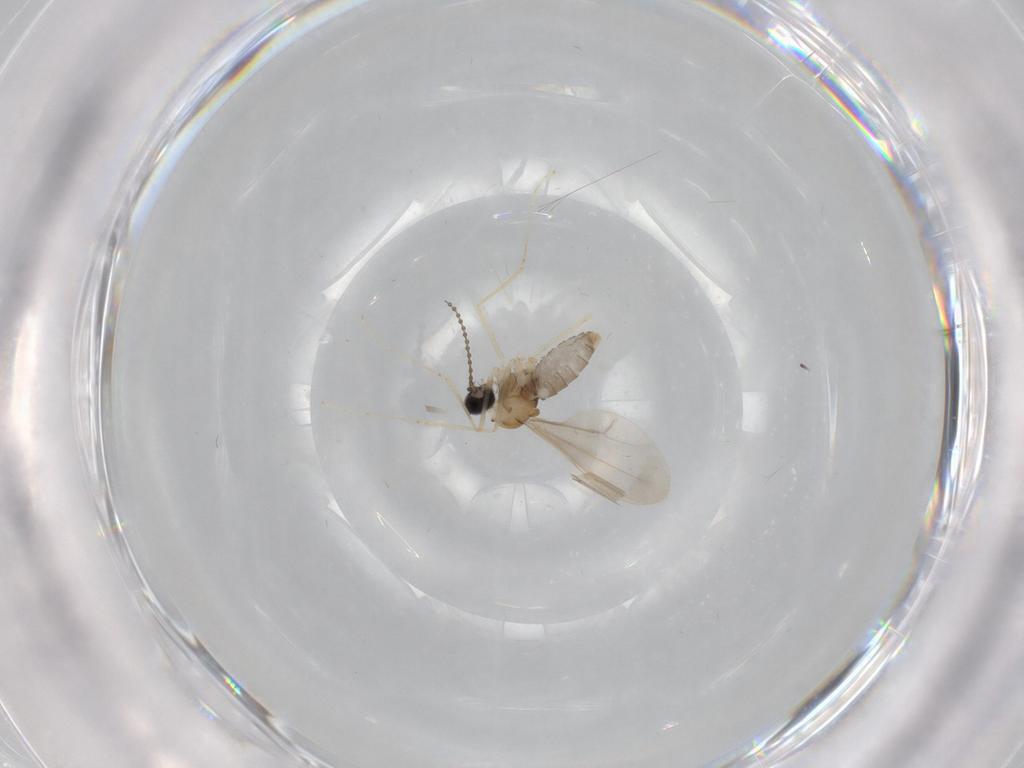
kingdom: Animalia
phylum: Arthropoda
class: Insecta
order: Diptera
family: Cecidomyiidae
